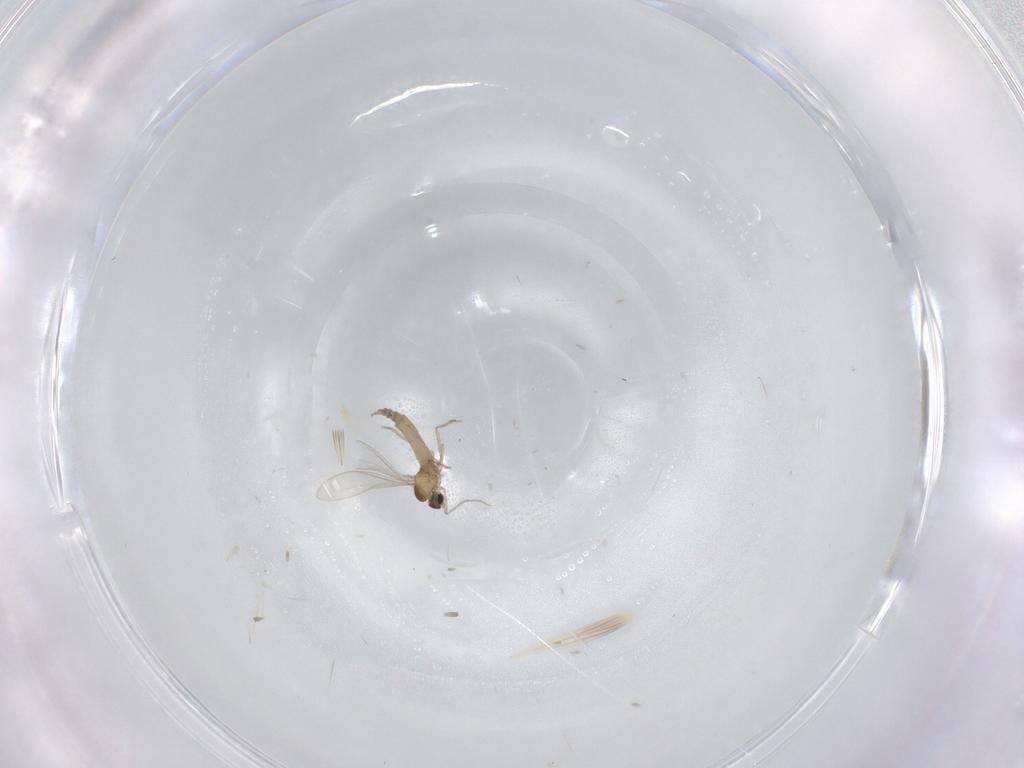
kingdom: Animalia
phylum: Arthropoda
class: Insecta
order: Diptera
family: Cecidomyiidae
